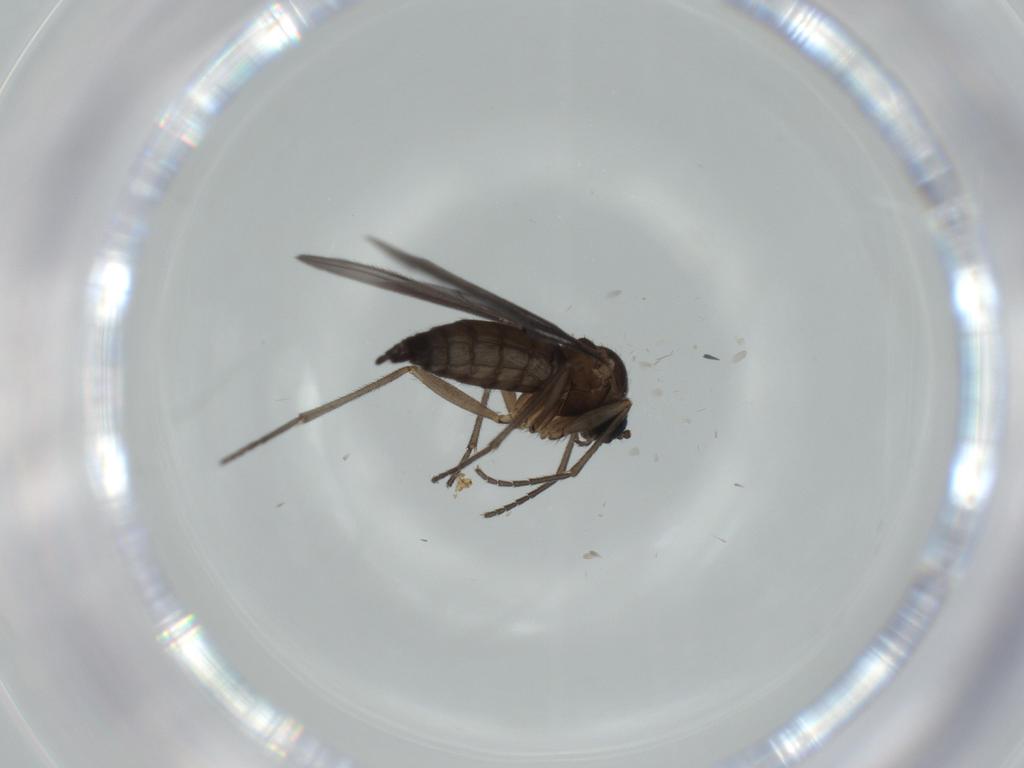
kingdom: Animalia
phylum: Arthropoda
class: Insecta
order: Diptera
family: Sciaridae
